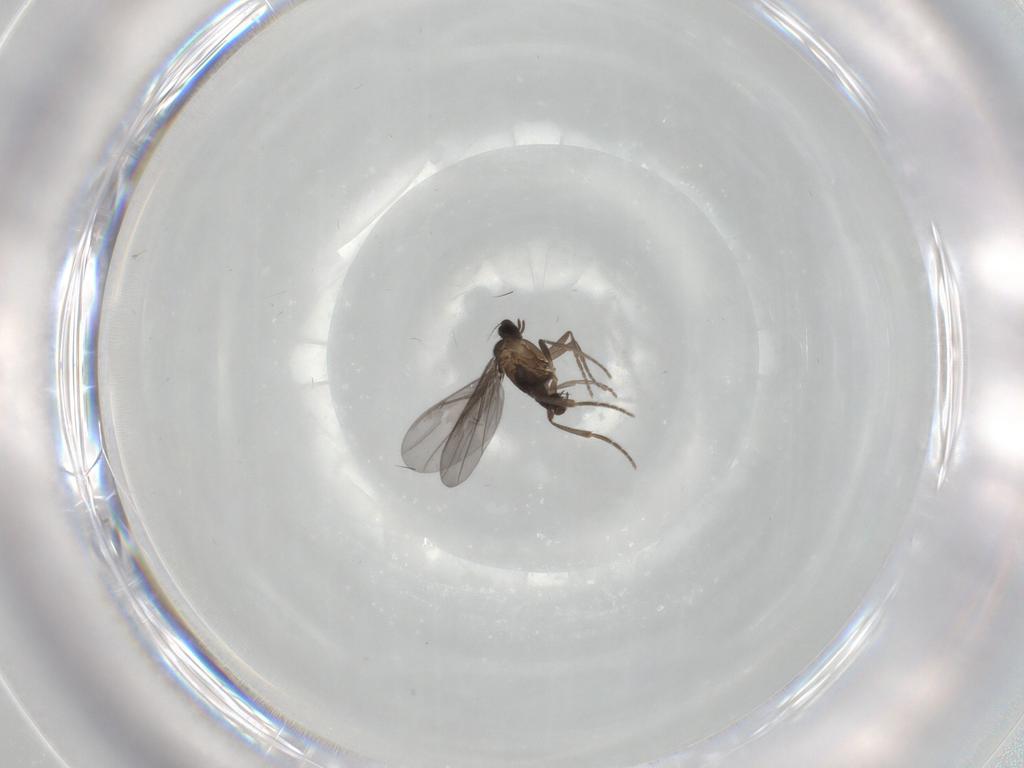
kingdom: Animalia
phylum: Arthropoda
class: Insecta
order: Diptera
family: Phoridae
